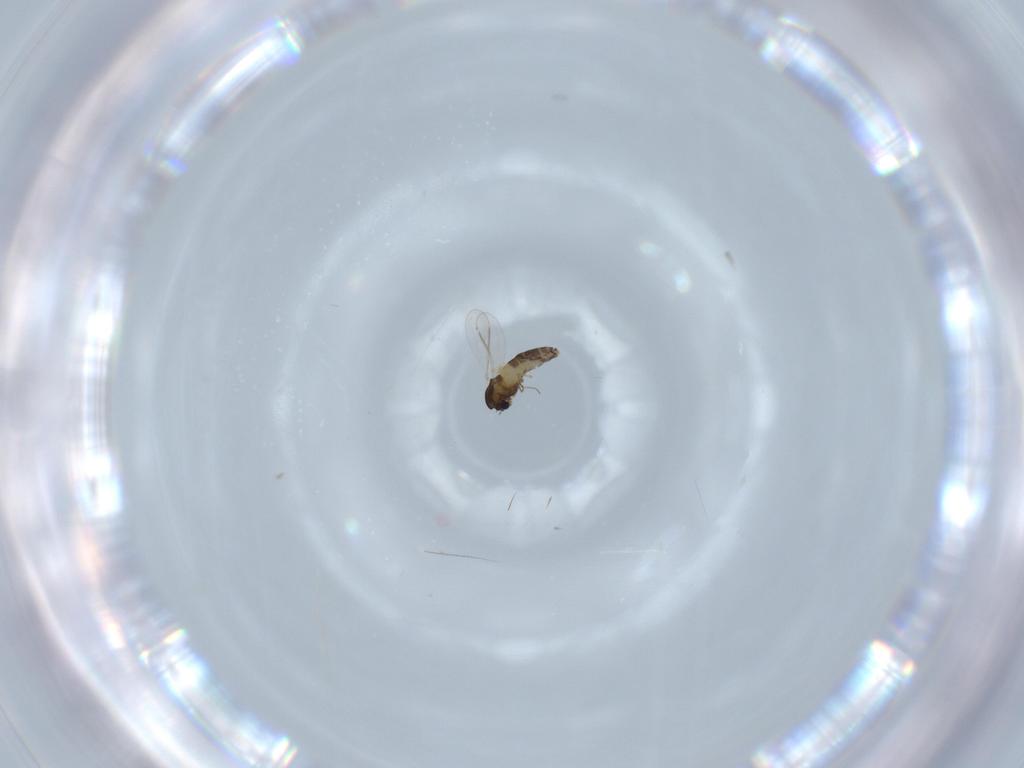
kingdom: Animalia
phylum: Arthropoda
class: Insecta
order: Diptera
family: Chironomidae
